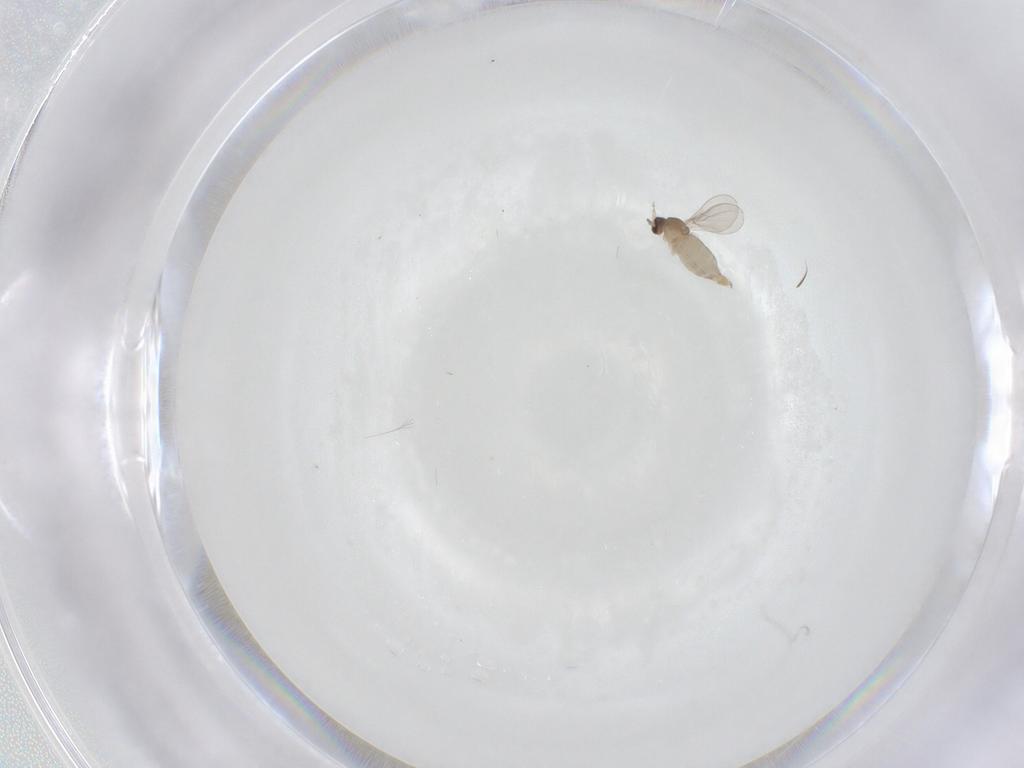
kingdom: Animalia
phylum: Arthropoda
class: Insecta
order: Diptera
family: Cecidomyiidae
